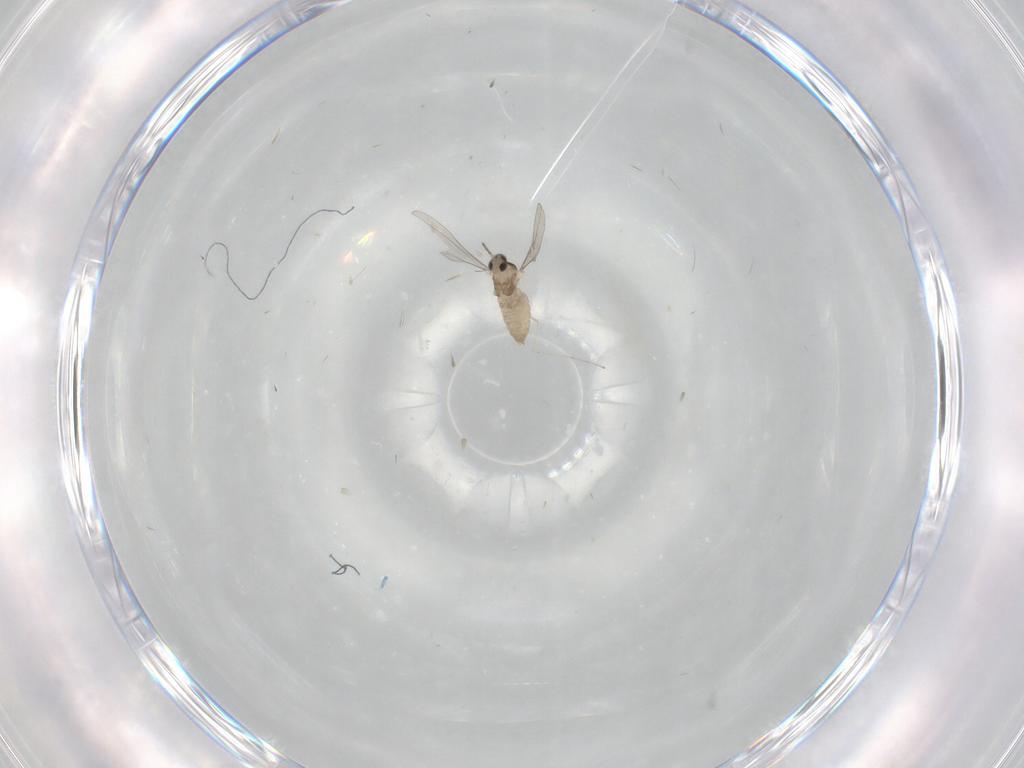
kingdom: Animalia
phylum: Arthropoda
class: Insecta
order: Diptera
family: Cecidomyiidae
